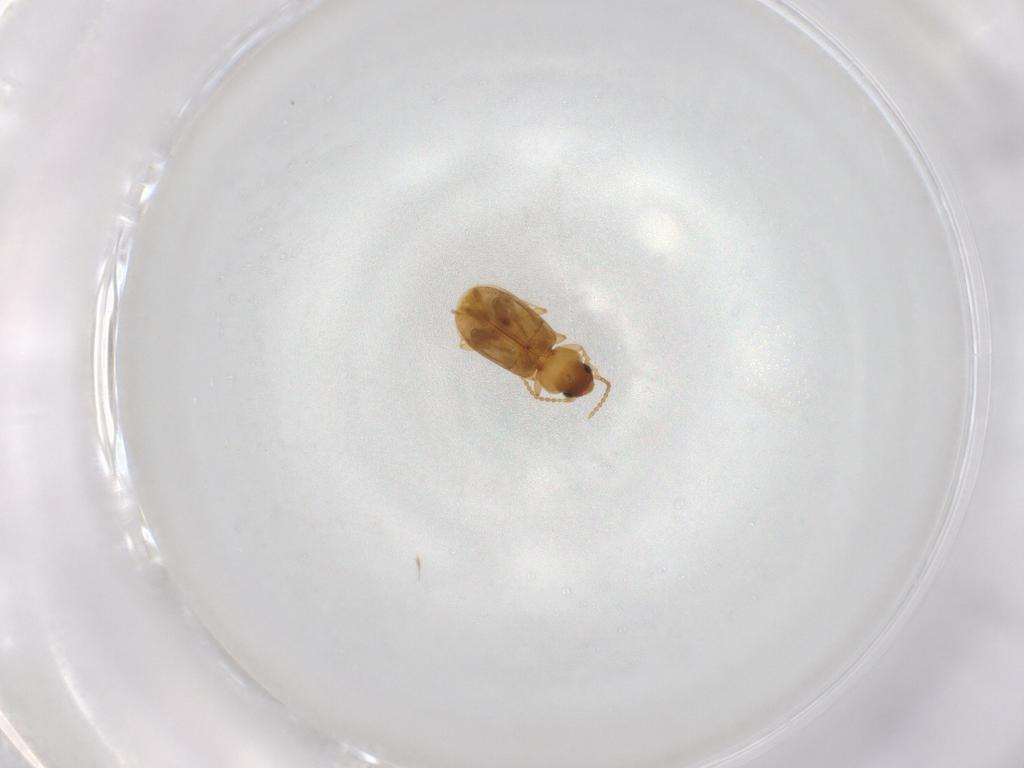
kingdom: Animalia
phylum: Arthropoda
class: Insecta
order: Coleoptera
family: Carabidae
